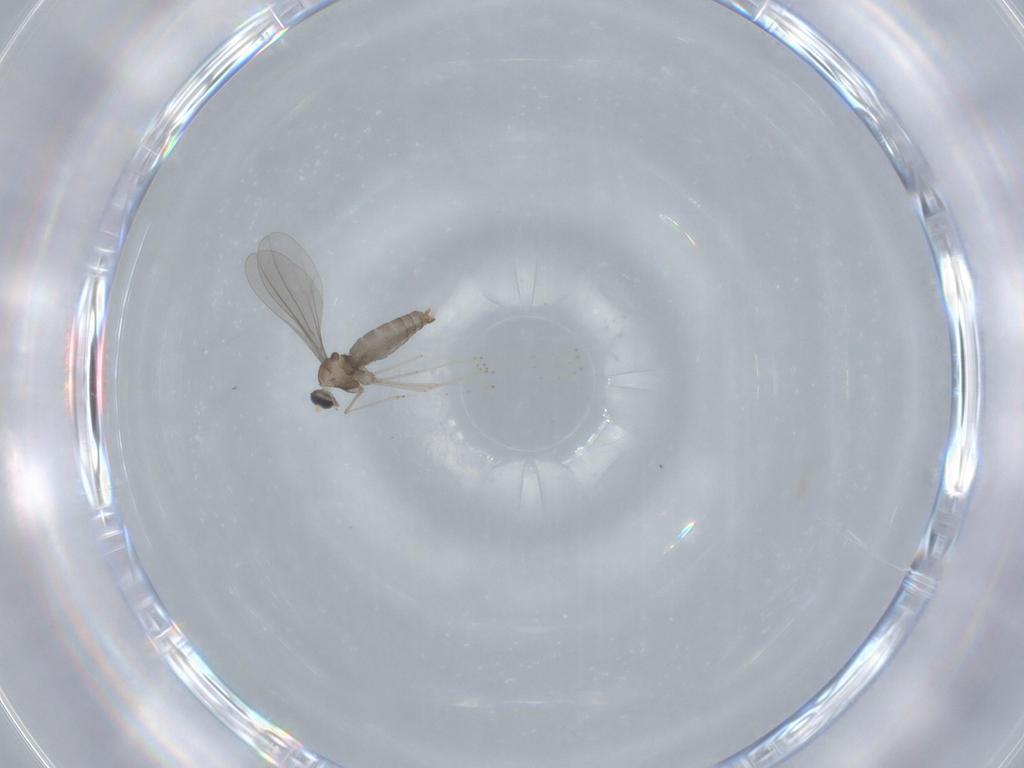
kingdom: Animalia
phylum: Arthropoda
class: Insecta
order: Diptera
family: Cecidomyiidae
